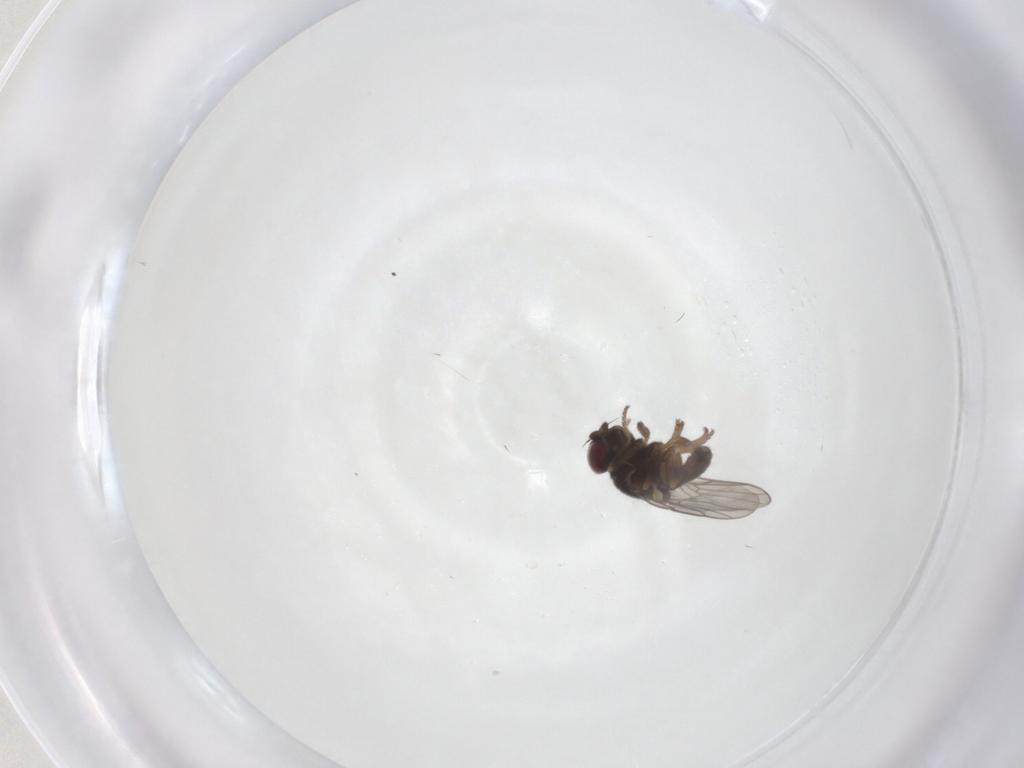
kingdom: Animalia
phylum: Arthropoda
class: Insecta
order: Diptera
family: Chloropidae
